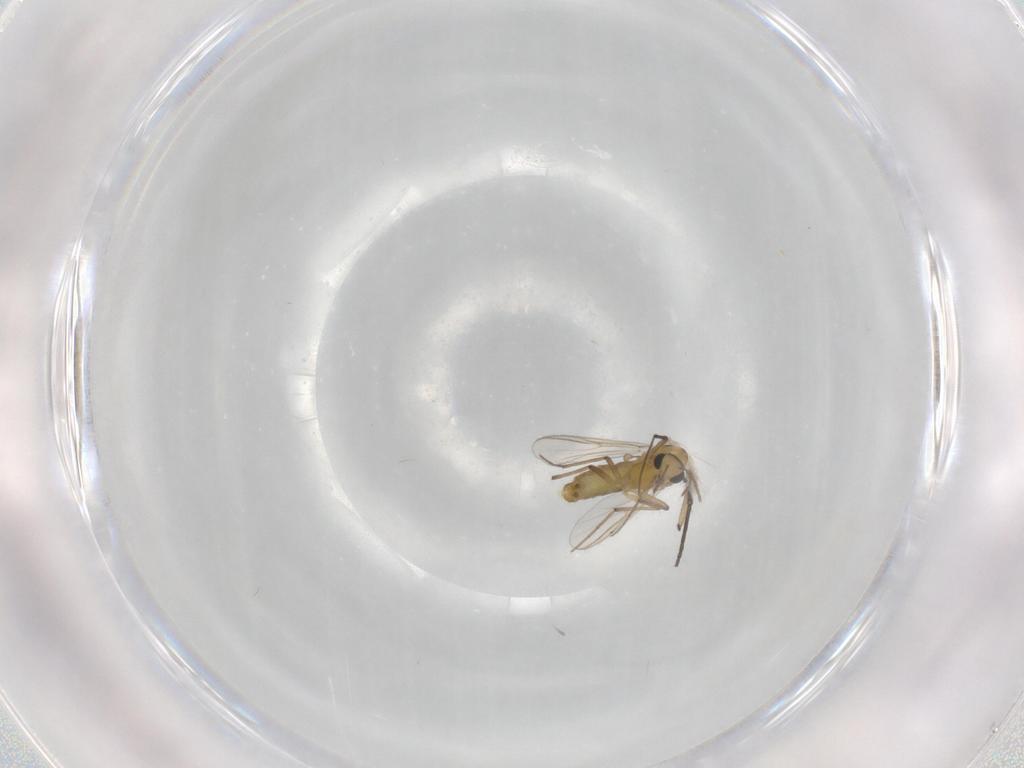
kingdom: Animalia
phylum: Arthropoda
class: Insecta
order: Diptera
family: Chironomidae
